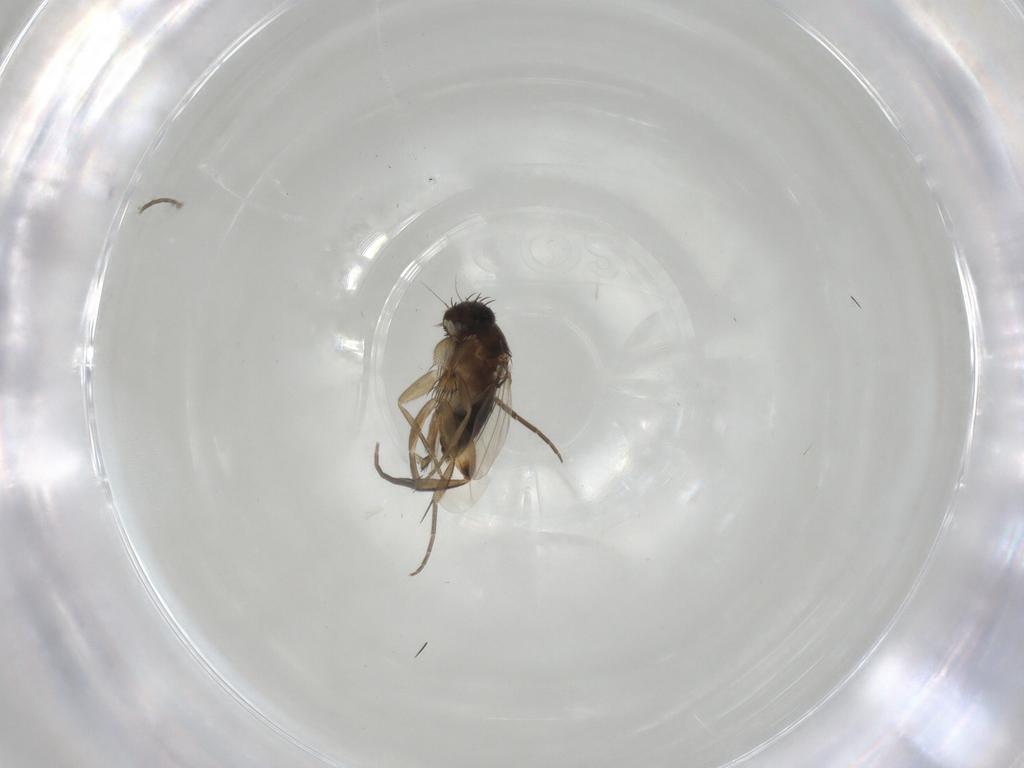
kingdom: Animalia
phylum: Arthropoda
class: Insecta
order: Diptera
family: Phoridae
